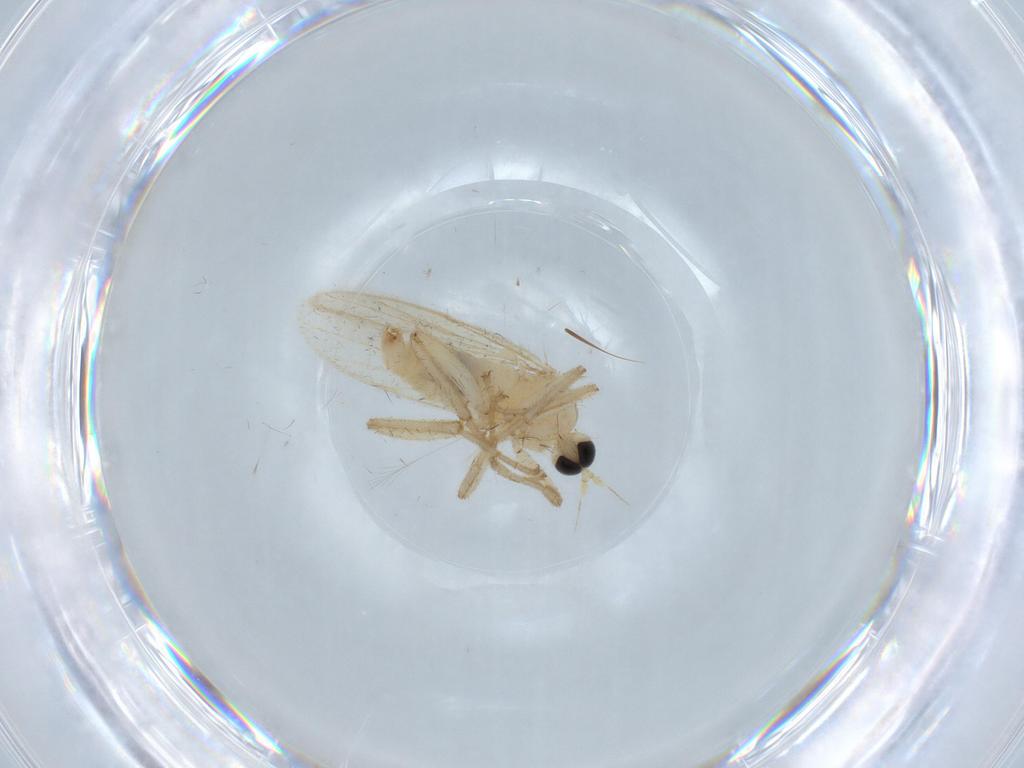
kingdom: Animalia
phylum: Arthropoda
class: Insecta
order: Diptera
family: Hybotidae
